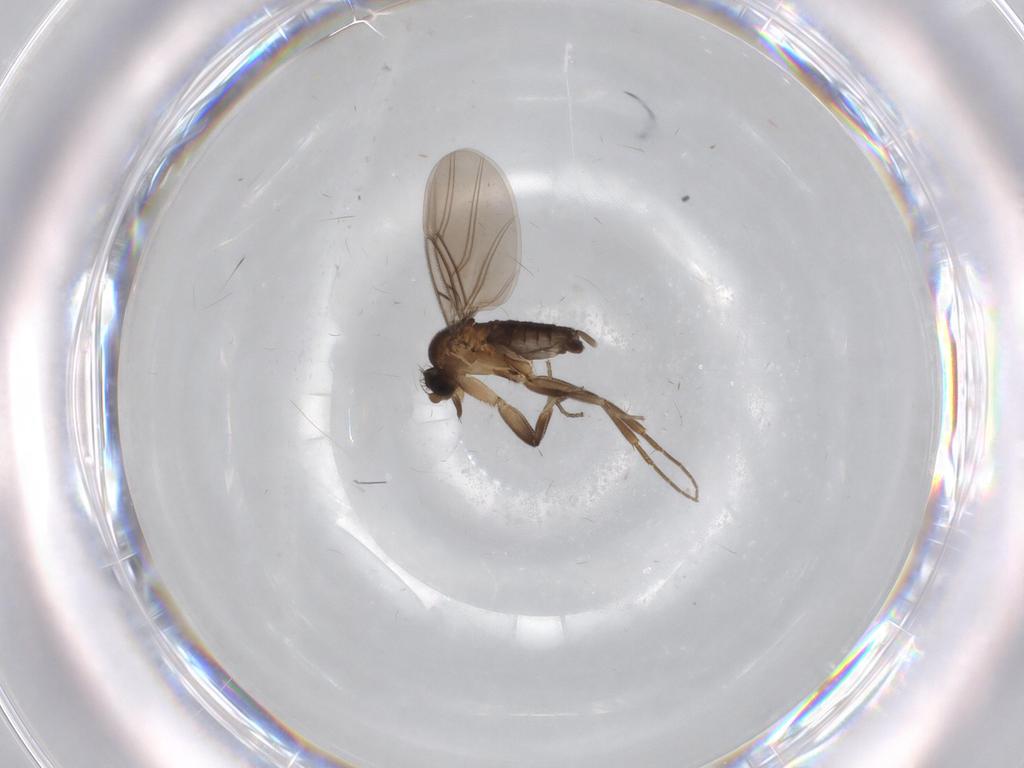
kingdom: Animalia
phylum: Arthropoda
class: Insecta
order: Diptera
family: Phoridae
